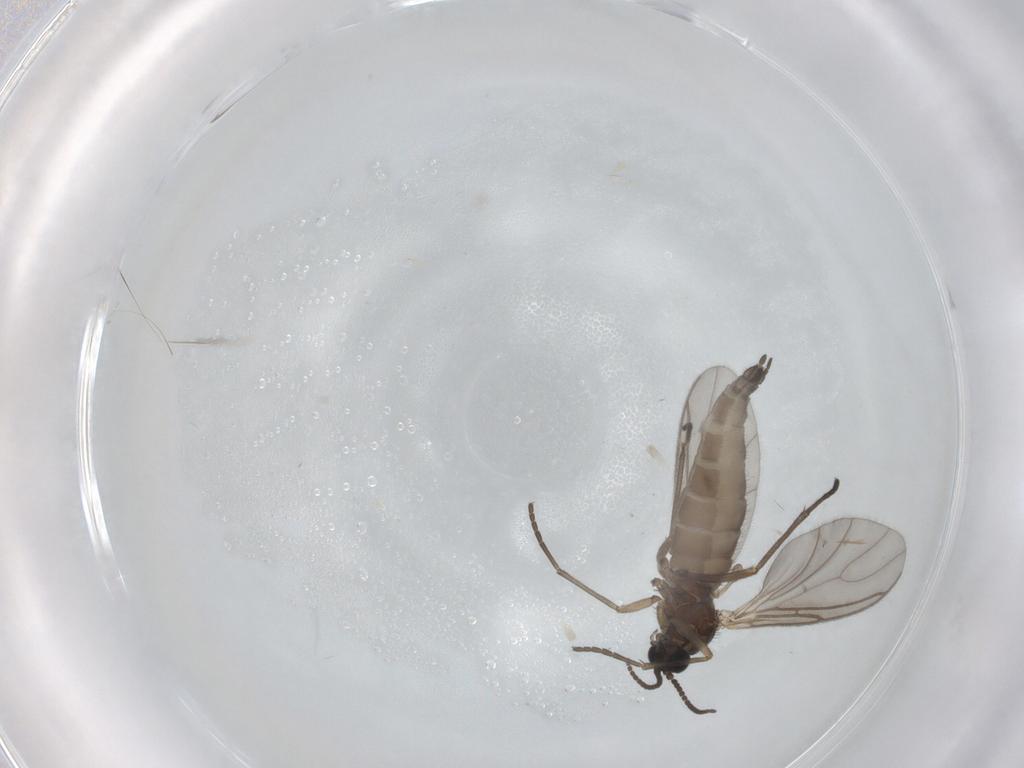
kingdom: Animalia
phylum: Arthropoda
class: Insecta
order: Diptera
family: Sciaridae
